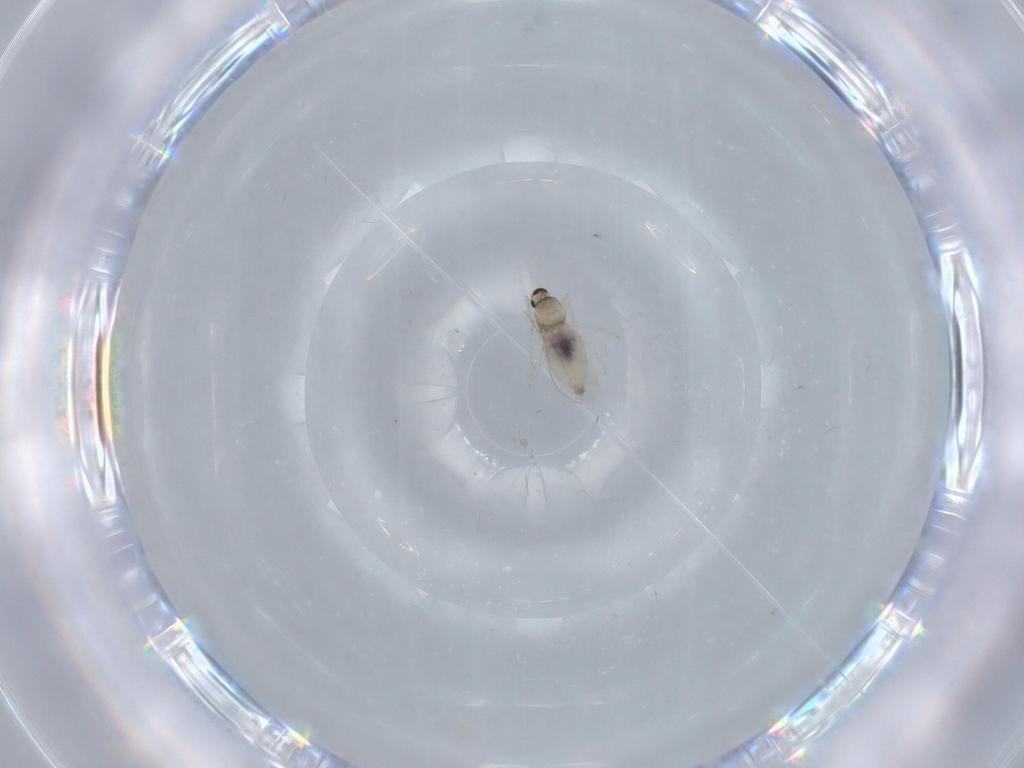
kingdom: Animalia
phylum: Arthropoda
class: Insecta
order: Diptera
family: Cecidomyiidae
